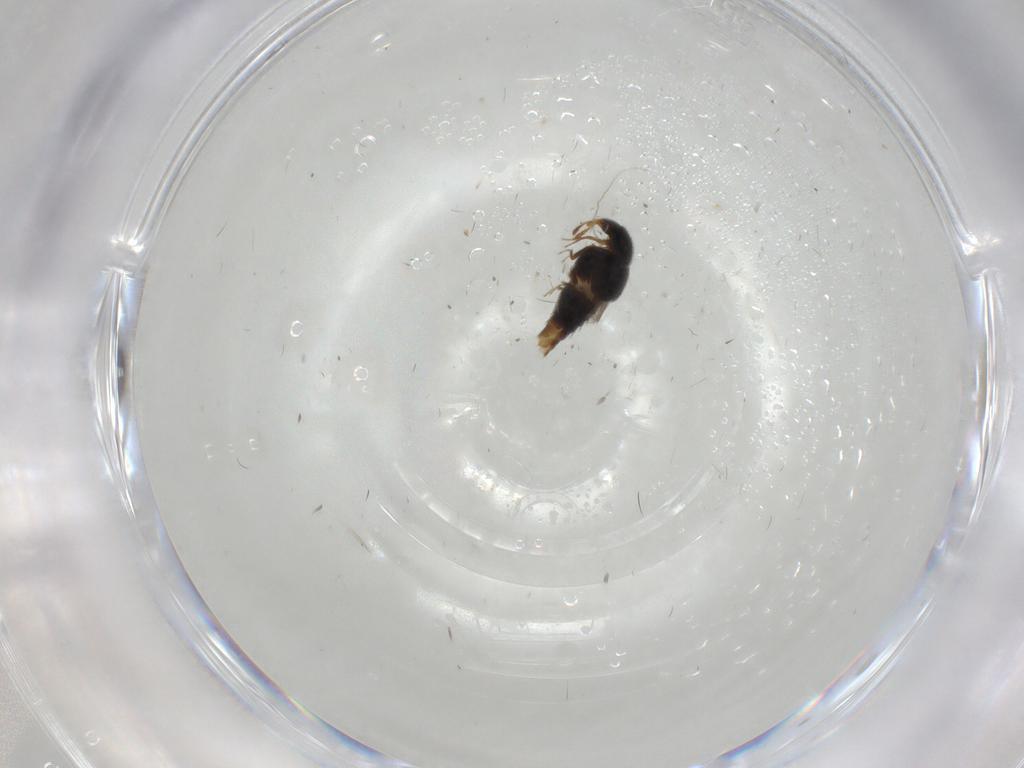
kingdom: Animalia
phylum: Arthropoda
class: Insecta
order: Coleoptera
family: Staphylinidae
